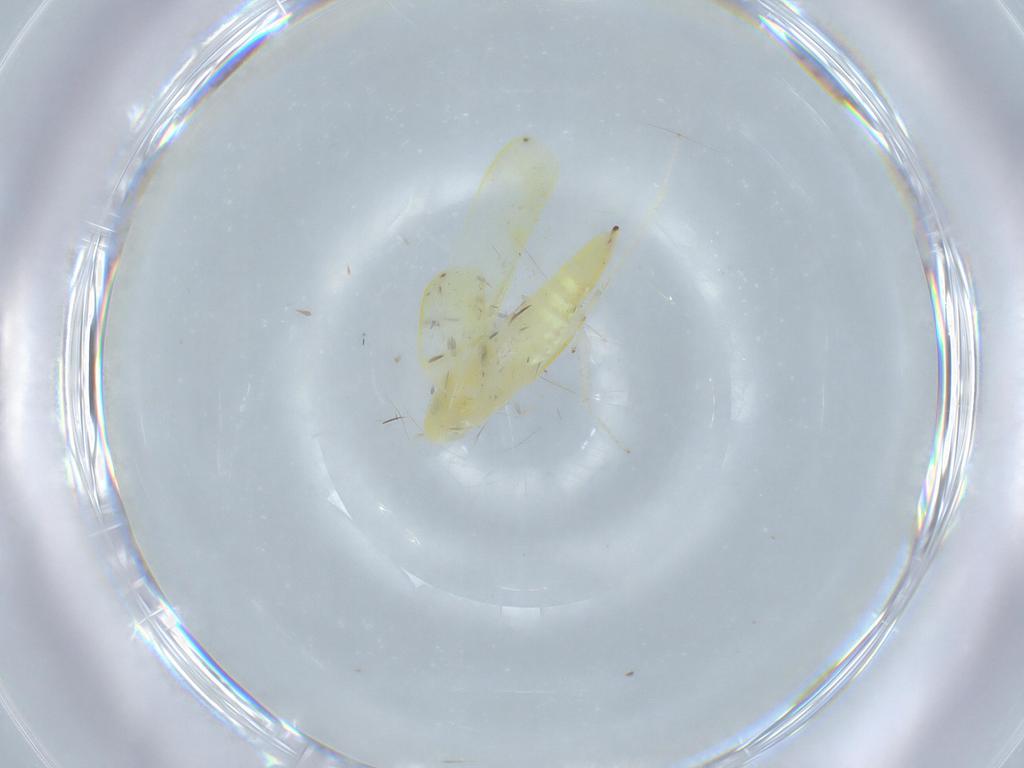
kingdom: Animalia
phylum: Arthropoda
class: Insecta
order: Hemiptera
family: Cicadellidae
